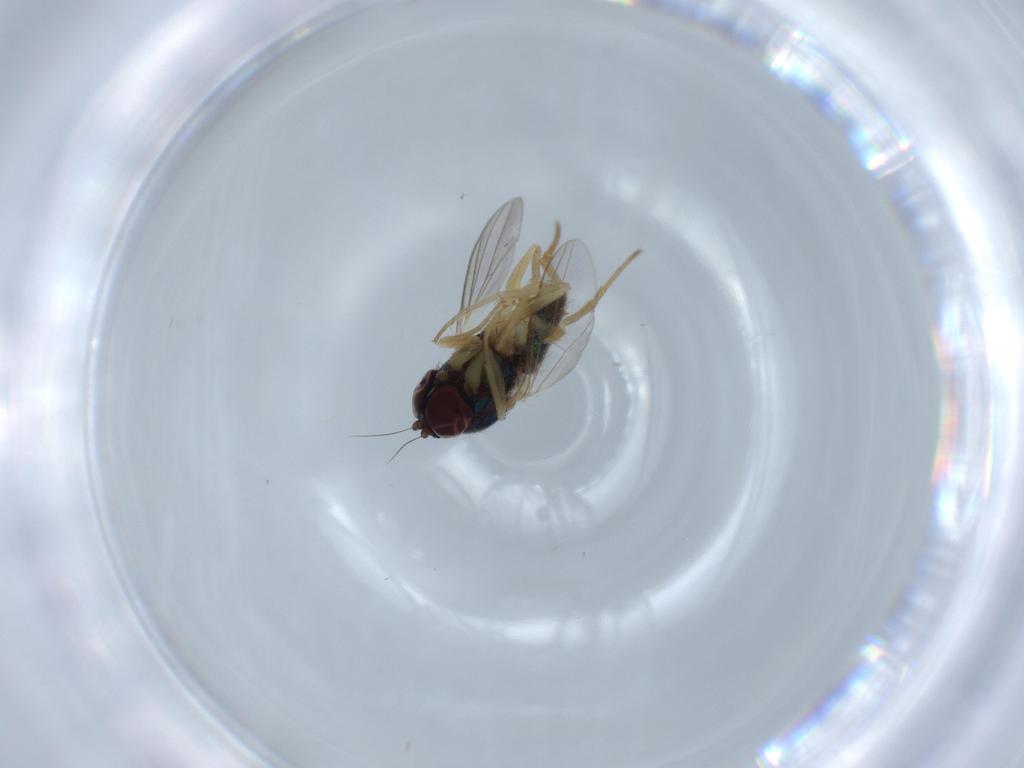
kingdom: Animalia
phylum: Arthropoda
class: Insecta
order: Diptera
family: Dolichopodidae
